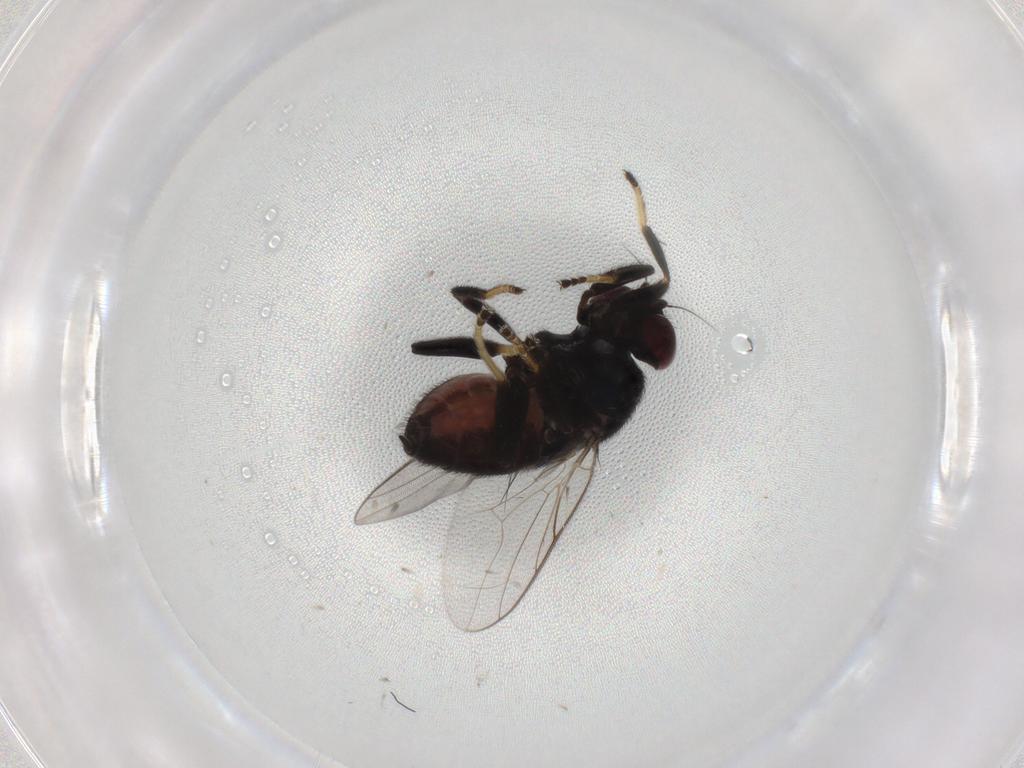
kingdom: Animalia
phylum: Arthropoda
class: Insecta
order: Diptera
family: Chloropidae
